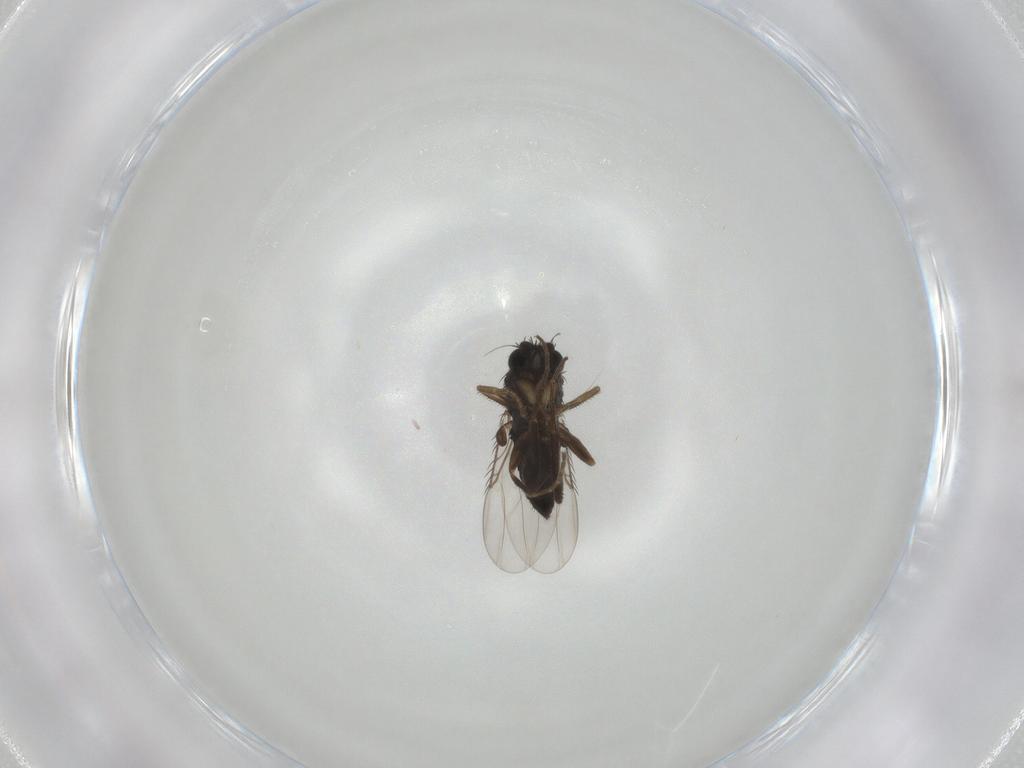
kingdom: Animalia
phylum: Arthropoda
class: Insecta
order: Diptera
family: Phoridae
